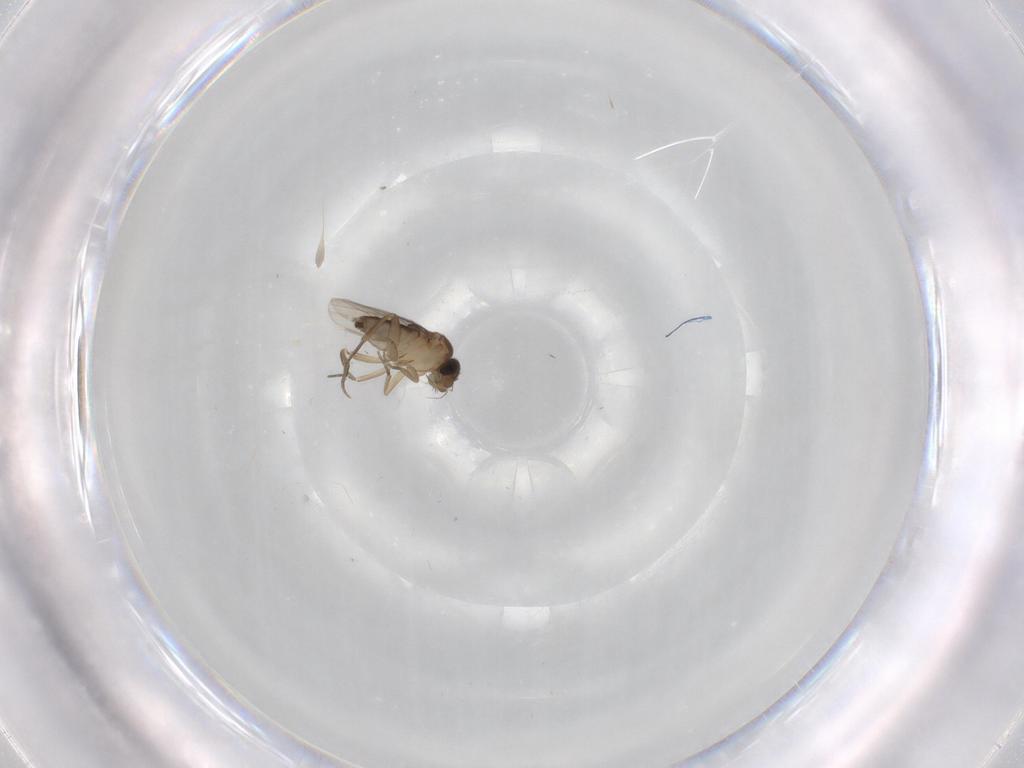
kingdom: Animalia
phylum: Arthropoda
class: Insecta
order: Diptera
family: Phoridae
